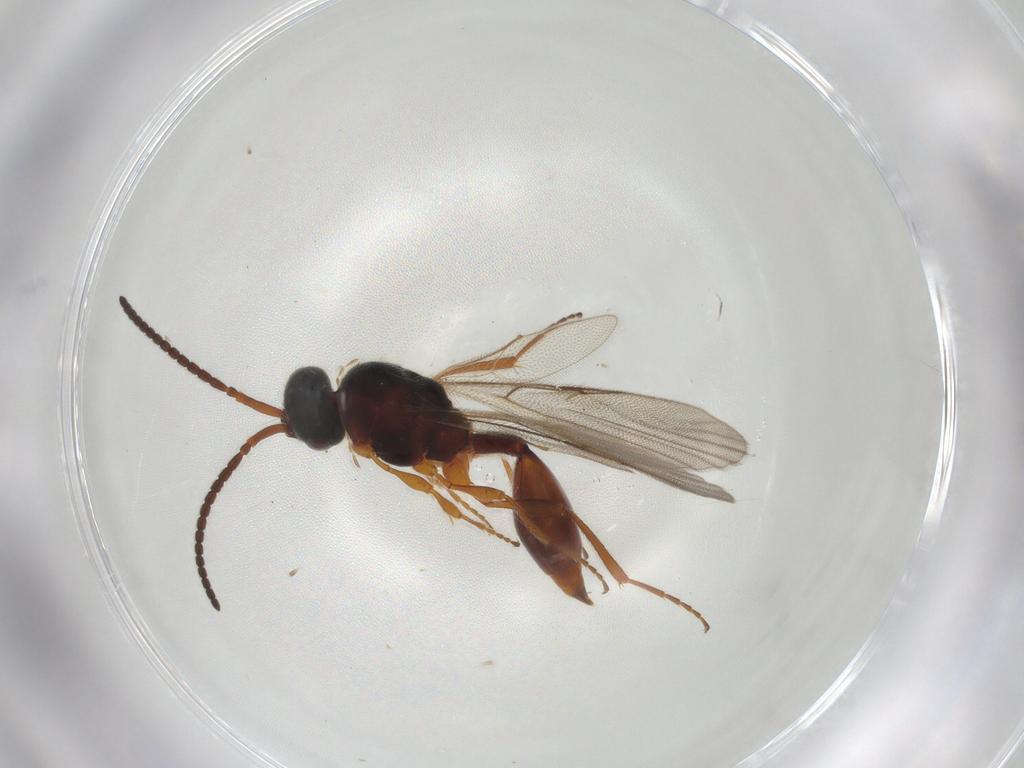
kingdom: Animalia
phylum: Arthropoda
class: Insecta
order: Hymenoptera
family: Diapriidae
